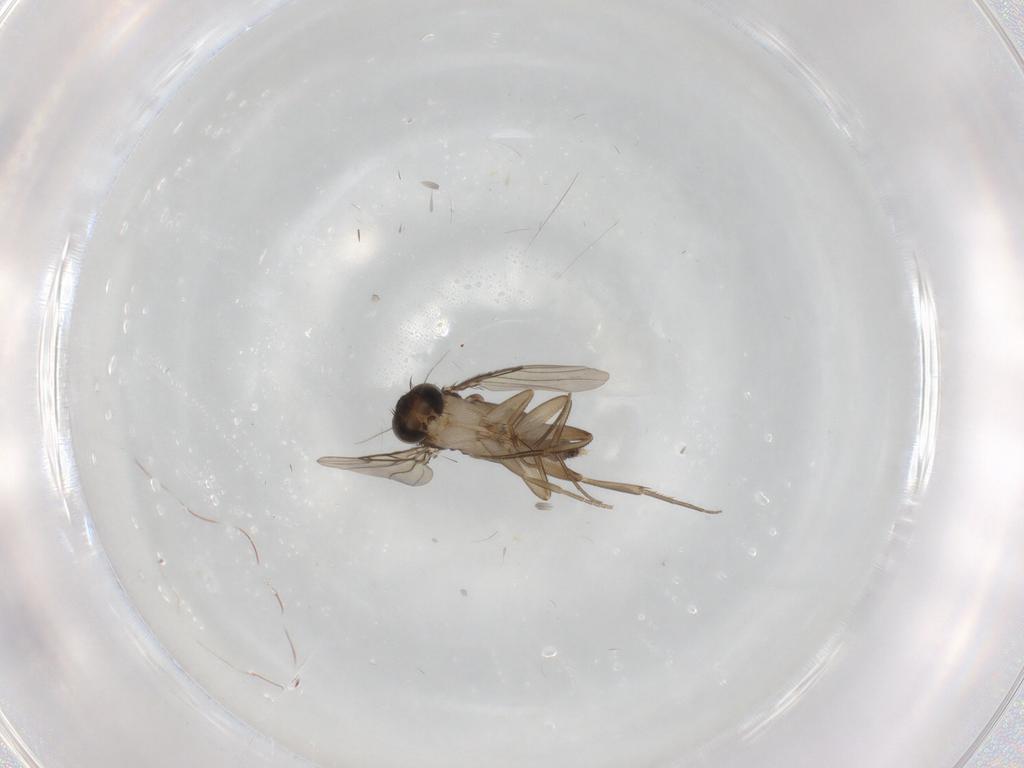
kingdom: Animalia
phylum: Arthropoda
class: Insecta
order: Diptera
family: Phoridae
